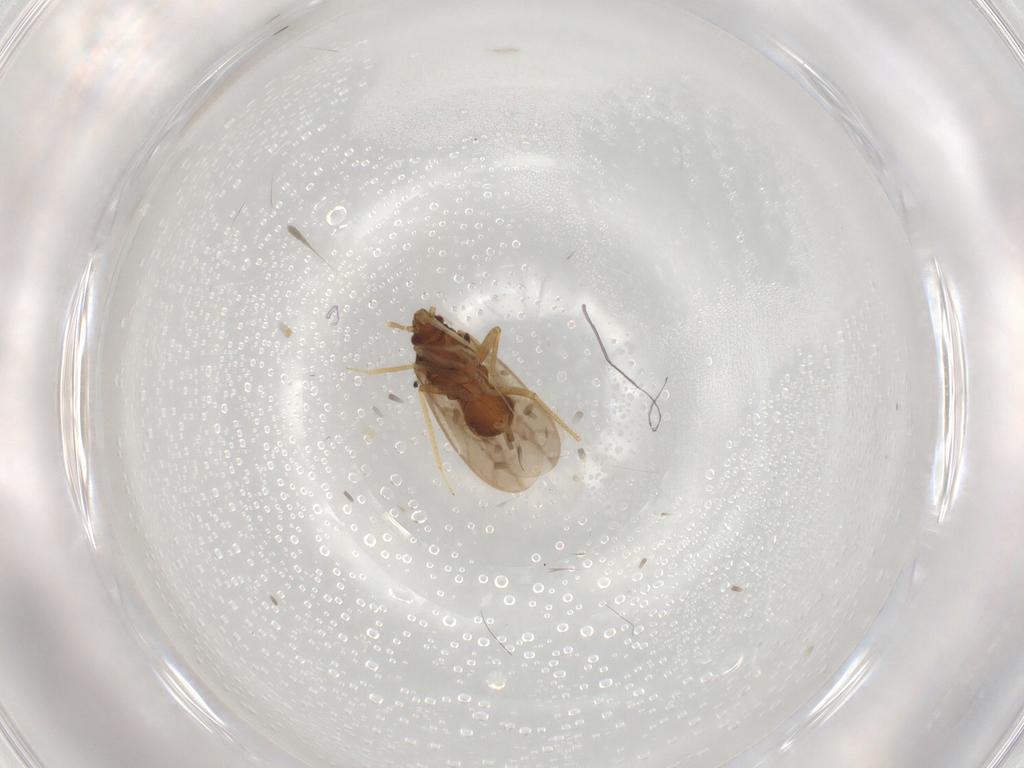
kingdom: Animalia
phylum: Arthropoda
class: Insecta
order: Hemiptera
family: Ceratocombidae
